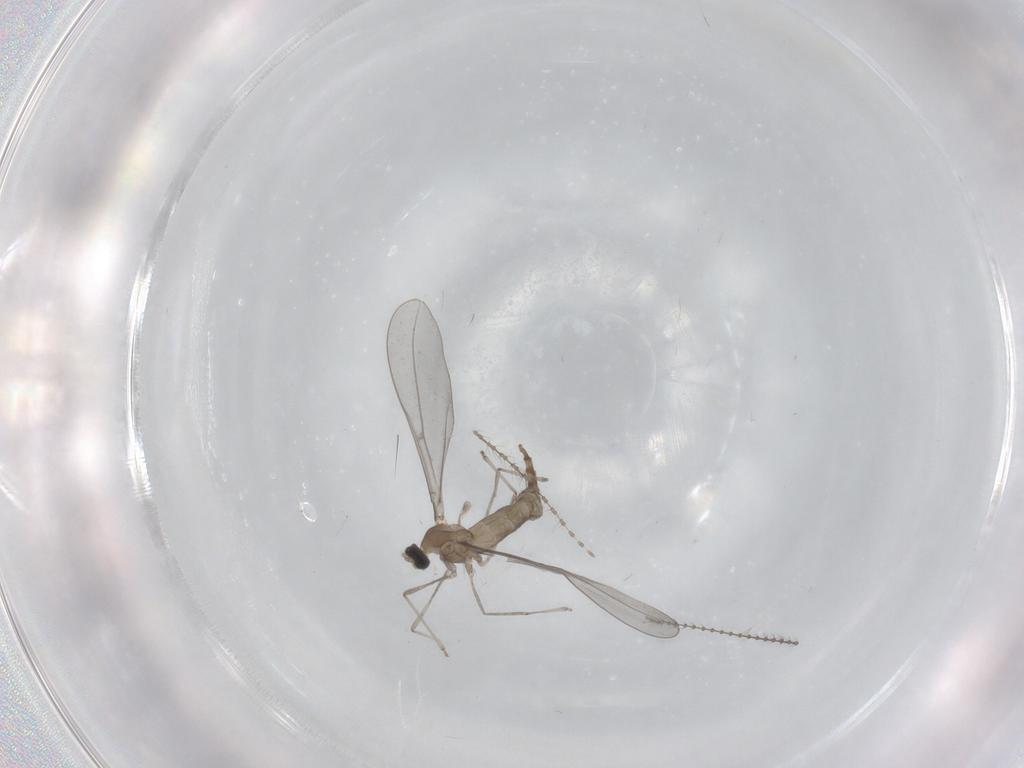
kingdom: Animalia
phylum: Arthropoda
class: Insecta
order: Diptera
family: Cecidomyiidae
